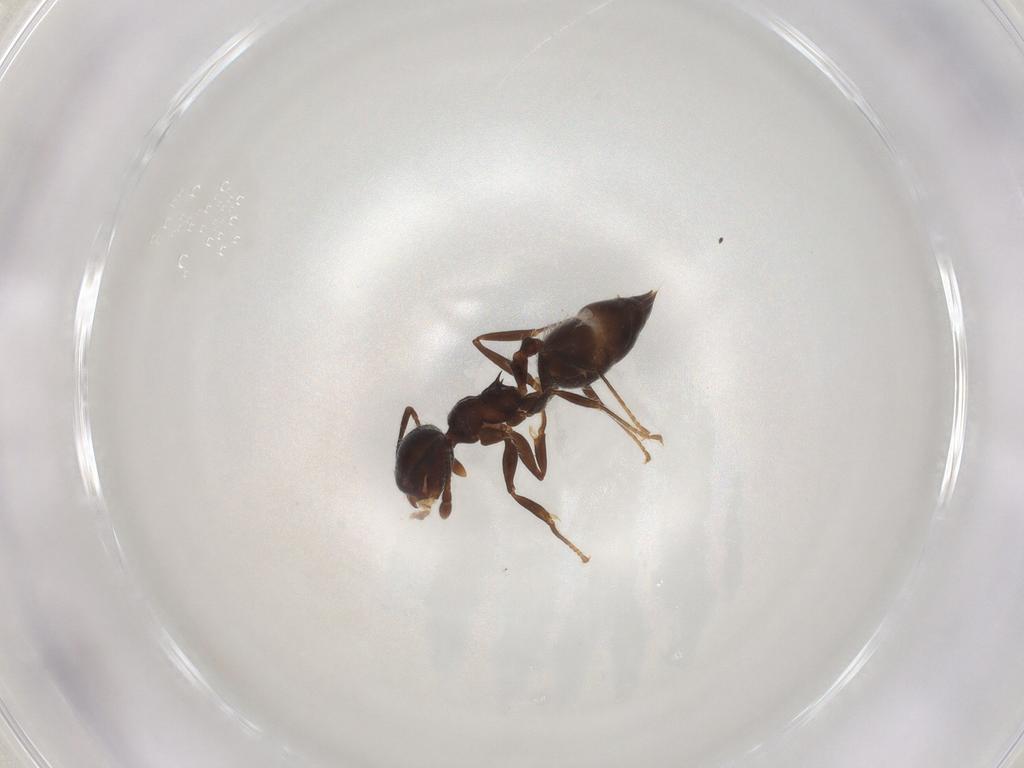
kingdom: Animalia
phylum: Arthropoda
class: Insecta
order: Hymenoptera
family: Formicidae
